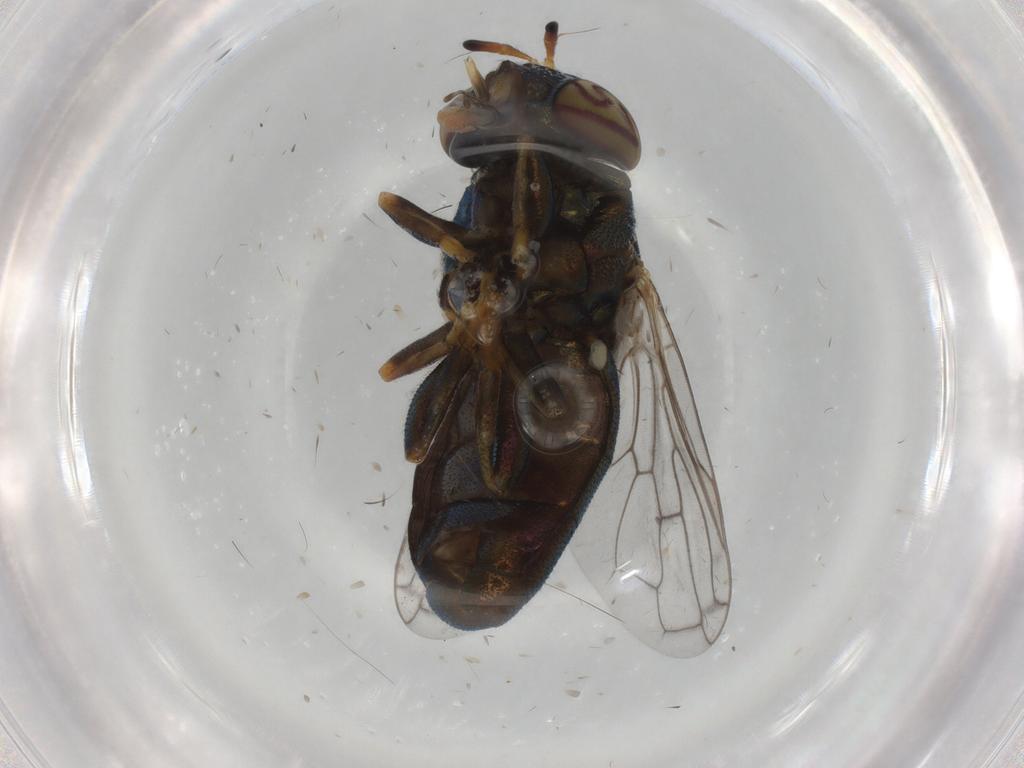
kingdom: Animalia
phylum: Arthropoda
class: Insecta
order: Diptera
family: Syrphidae
